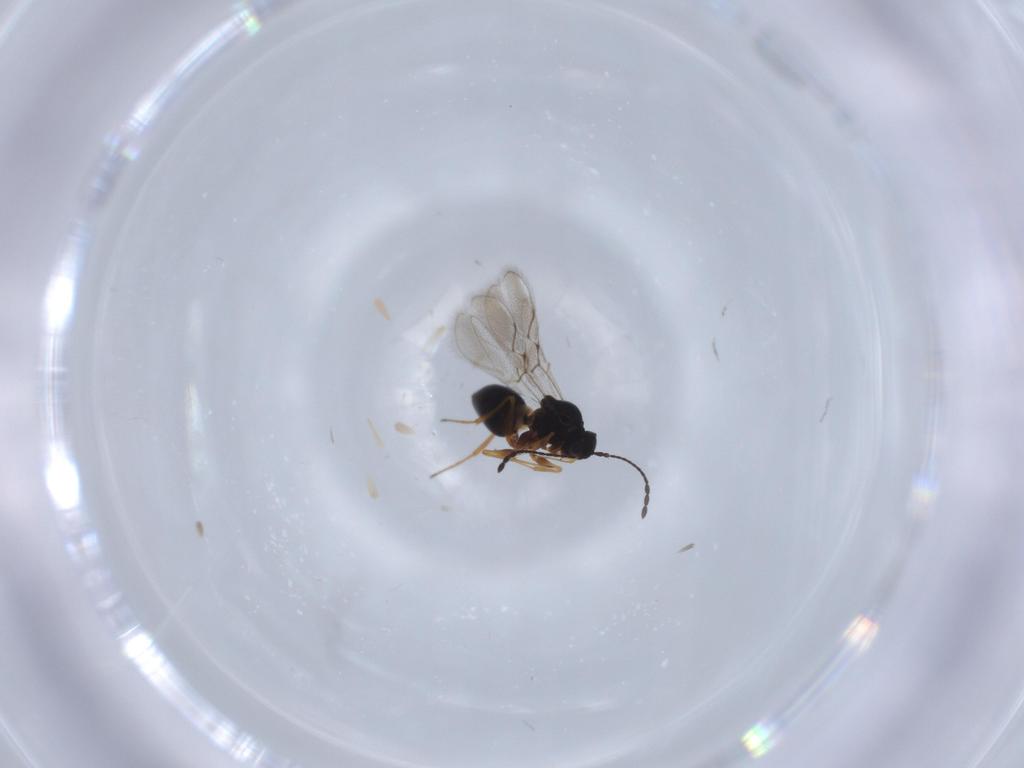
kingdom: Animalia
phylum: Arthropoda
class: Insecta
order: Hymenoptera
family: Figitidae
